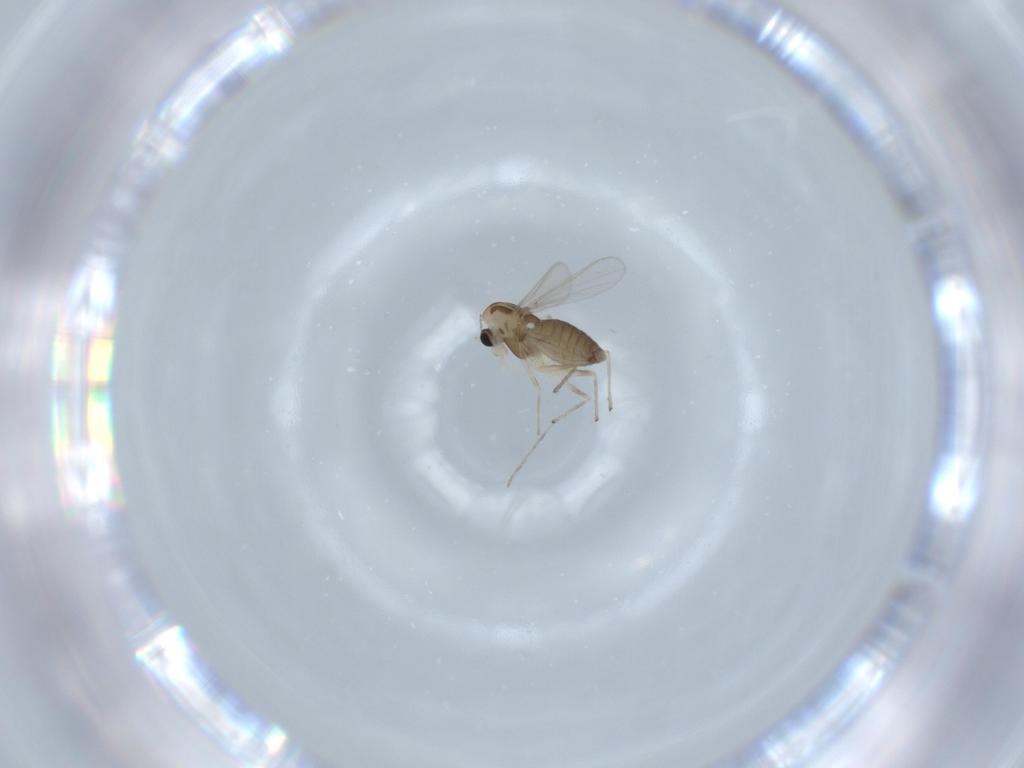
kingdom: Animalia
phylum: Arthropoda
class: Insecta
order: Diptera
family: Chironomidae
